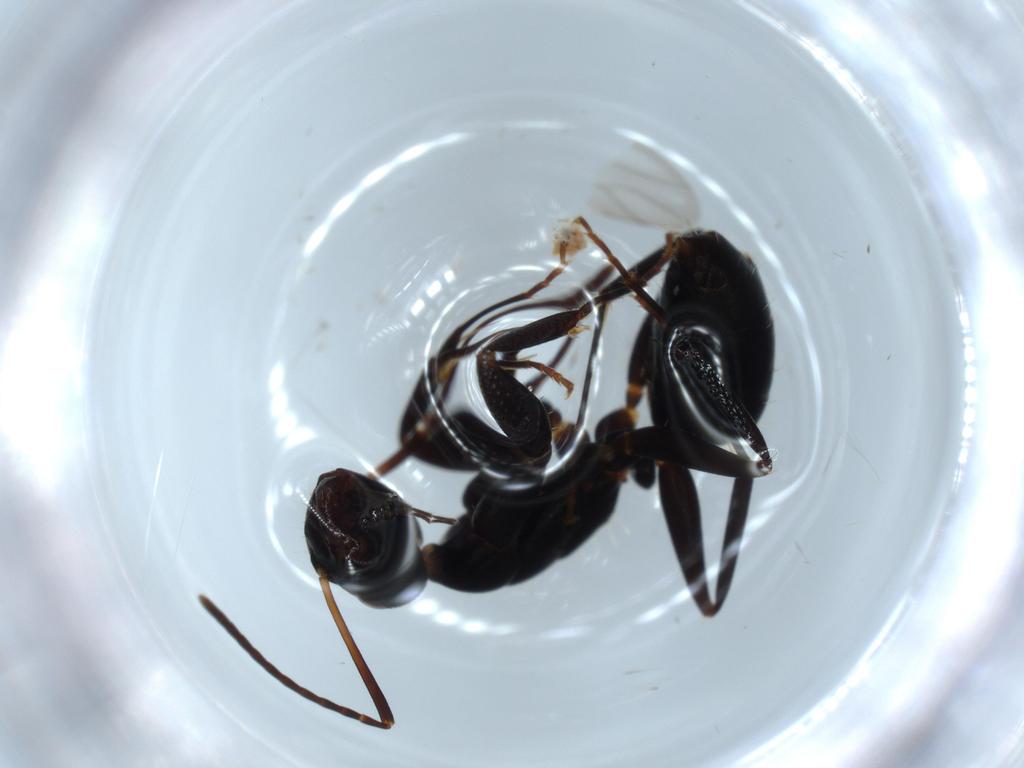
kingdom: Animalia
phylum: Arthropoda
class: Insecta
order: Hymenoptera
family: Formicidae
